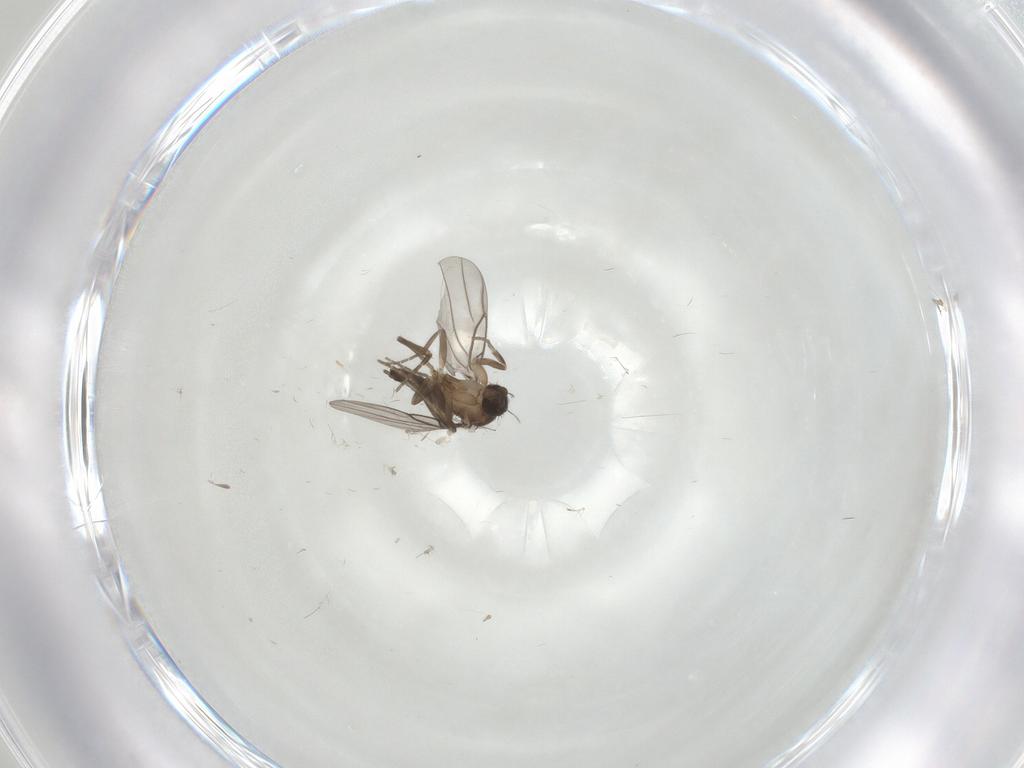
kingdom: Animalia
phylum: Arthropoda
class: Insecta
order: Diptera
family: Phoridae
